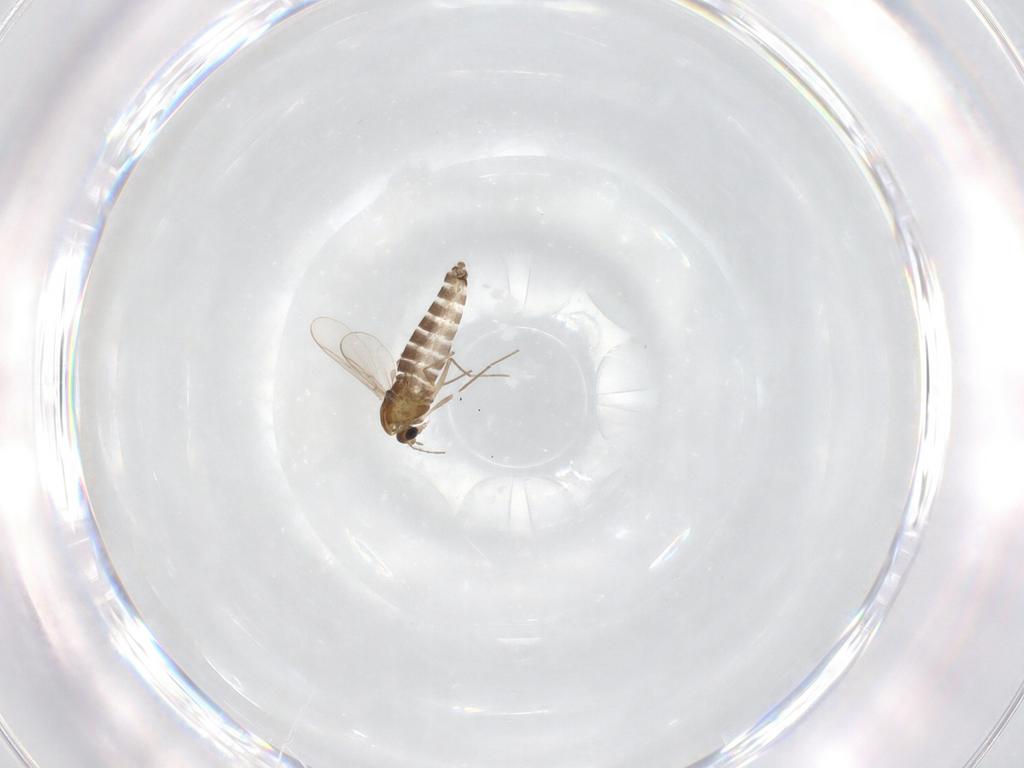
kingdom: Animalia
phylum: Arthropoda
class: Insecta
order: Diptera
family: Chironomidae
